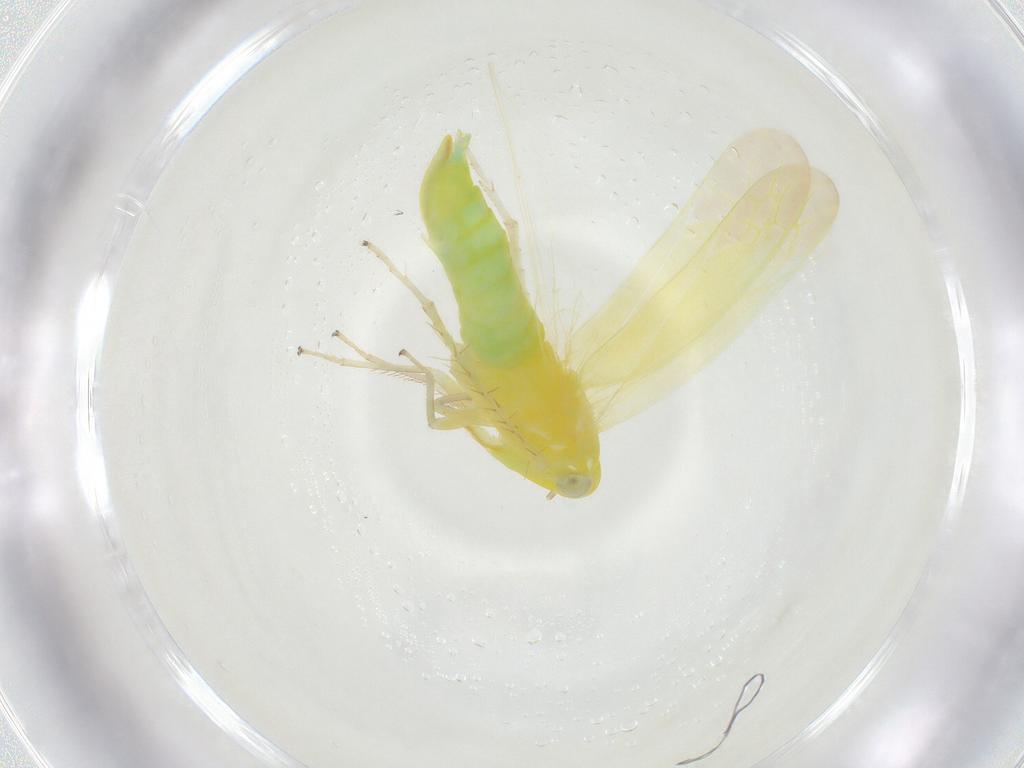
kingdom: Animalia
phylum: Arthropoda
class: Insecta
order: Hemiptera
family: Cicadellidae
